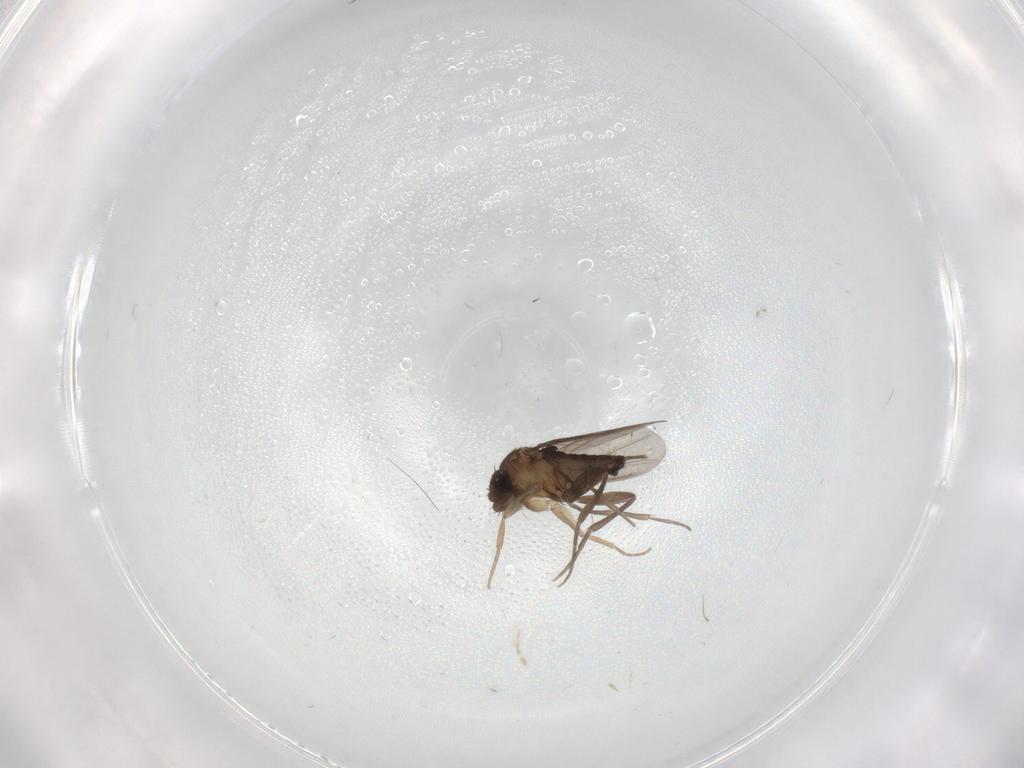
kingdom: Animalia
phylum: Arthropoda
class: Insecta
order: Diptera
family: Phoridae
